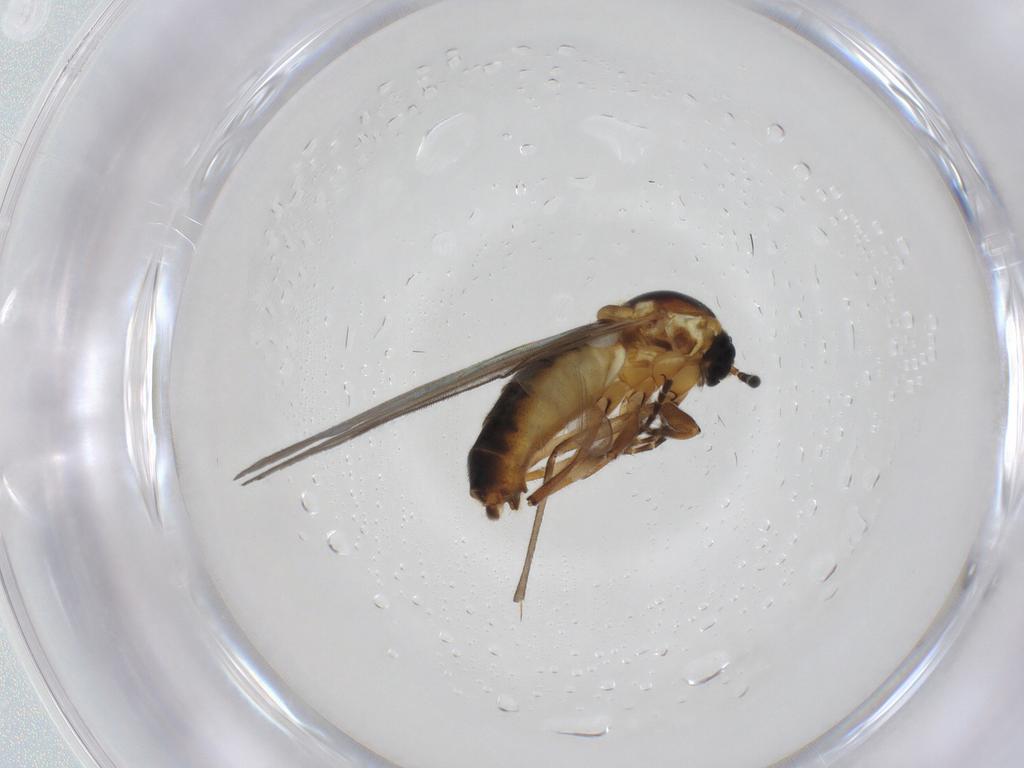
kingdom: Animalia
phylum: Arthropoda
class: Insecta
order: Diptera
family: Scatopsidae
